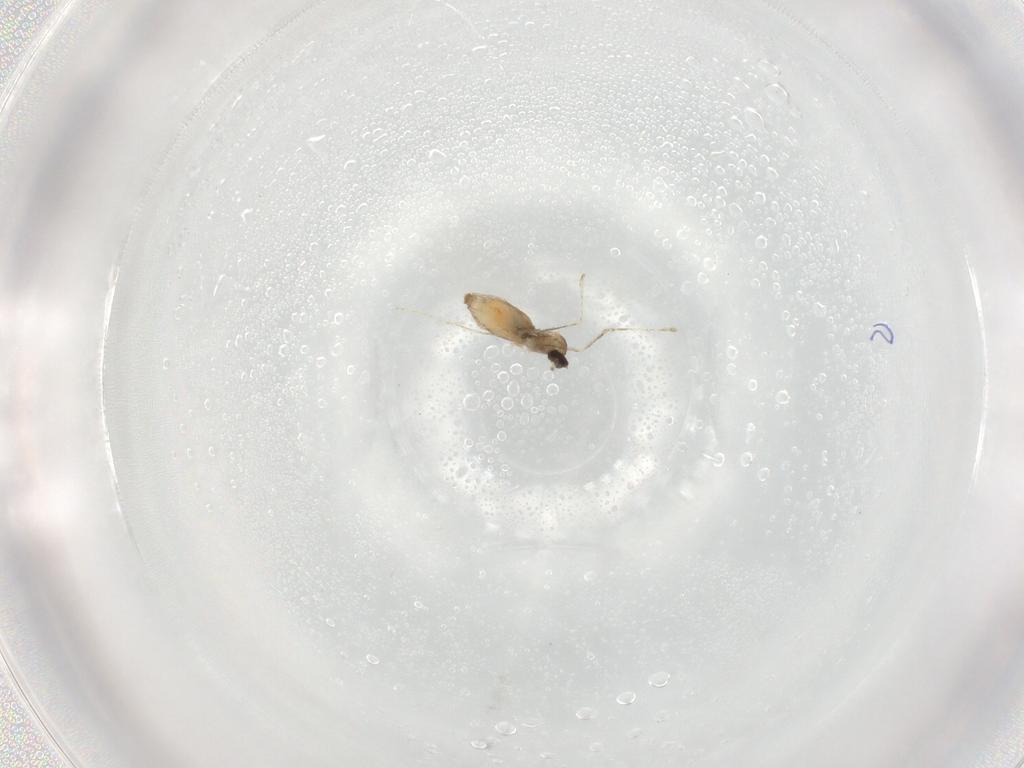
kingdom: Animalia
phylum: Arthropoda
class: Insecta
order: Diptera
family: Cecidomyiidae
